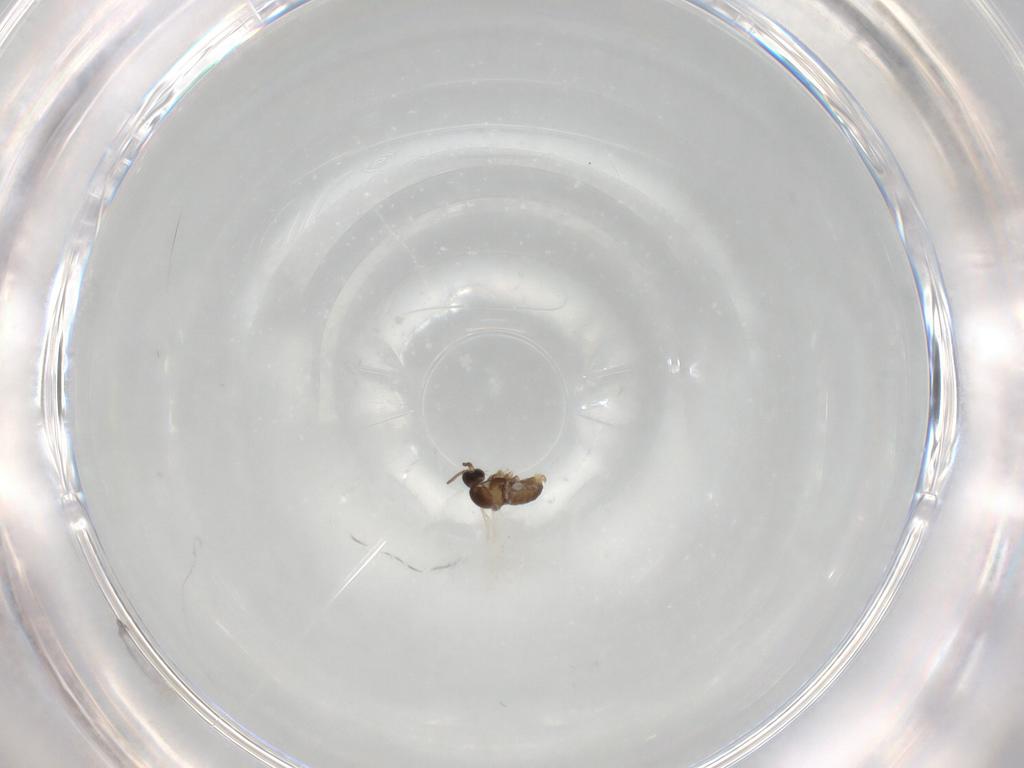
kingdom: Animalia
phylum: Arthropoda
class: Insecta
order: Diptera
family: Cecidomyiidae
